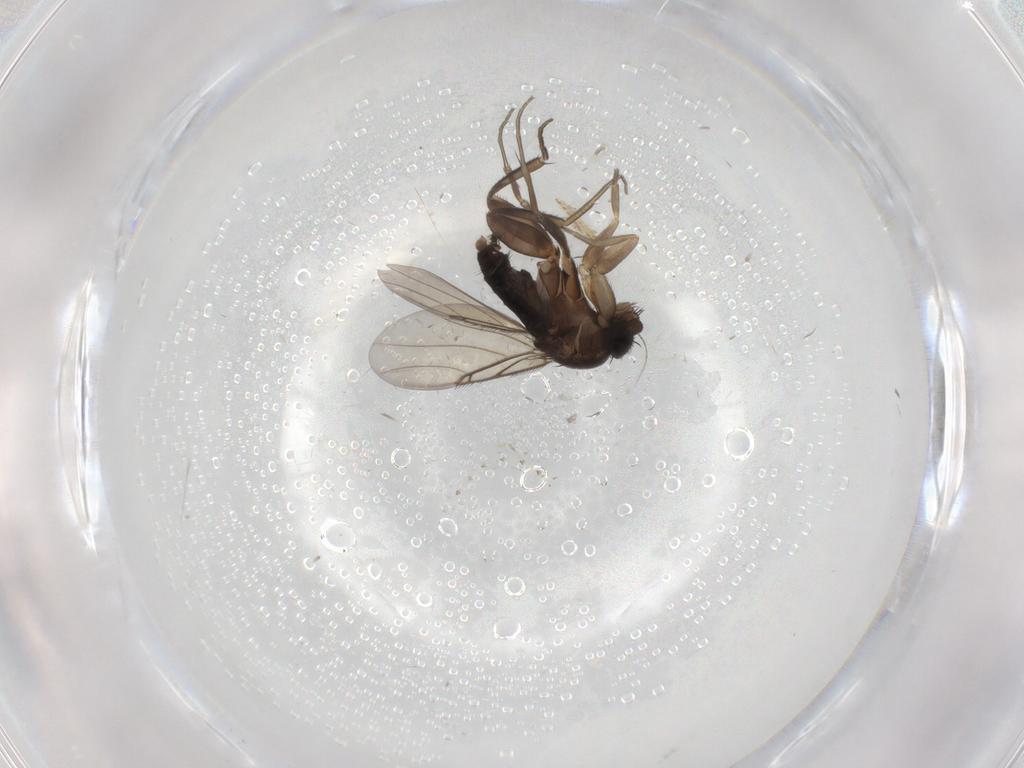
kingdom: Animalia
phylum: Arthropoda
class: Insecta
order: Diptera
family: Phoridae
